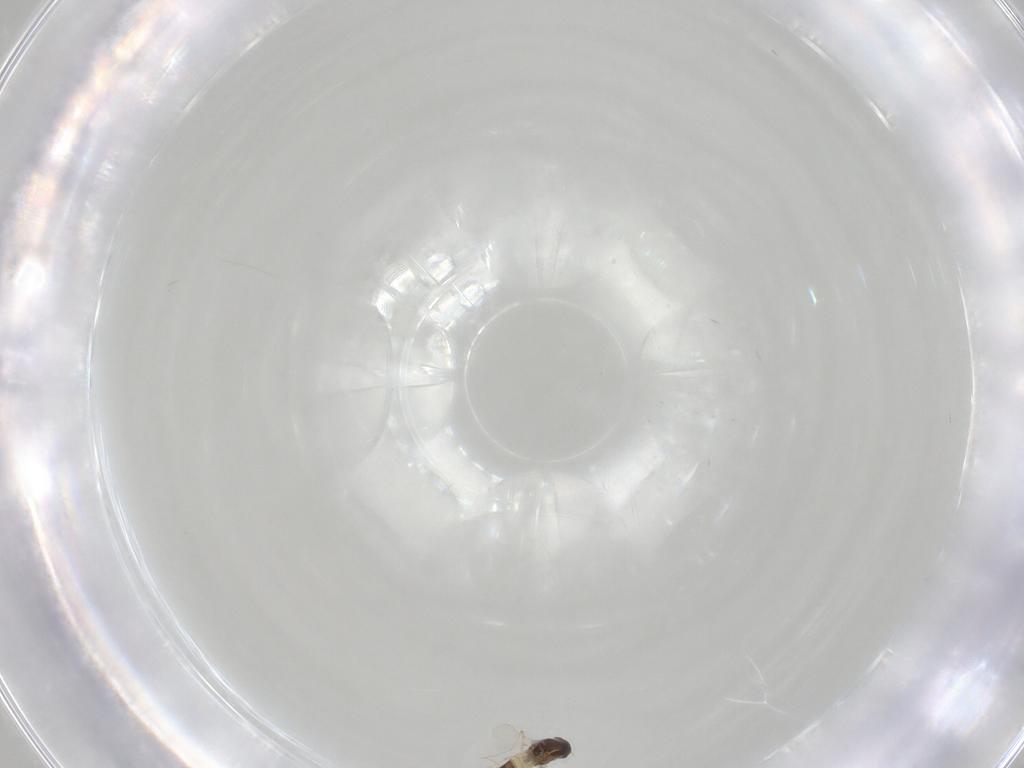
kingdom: Animalia
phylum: Arthropoda
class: Insecta
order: Diptera
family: Chironomidae
